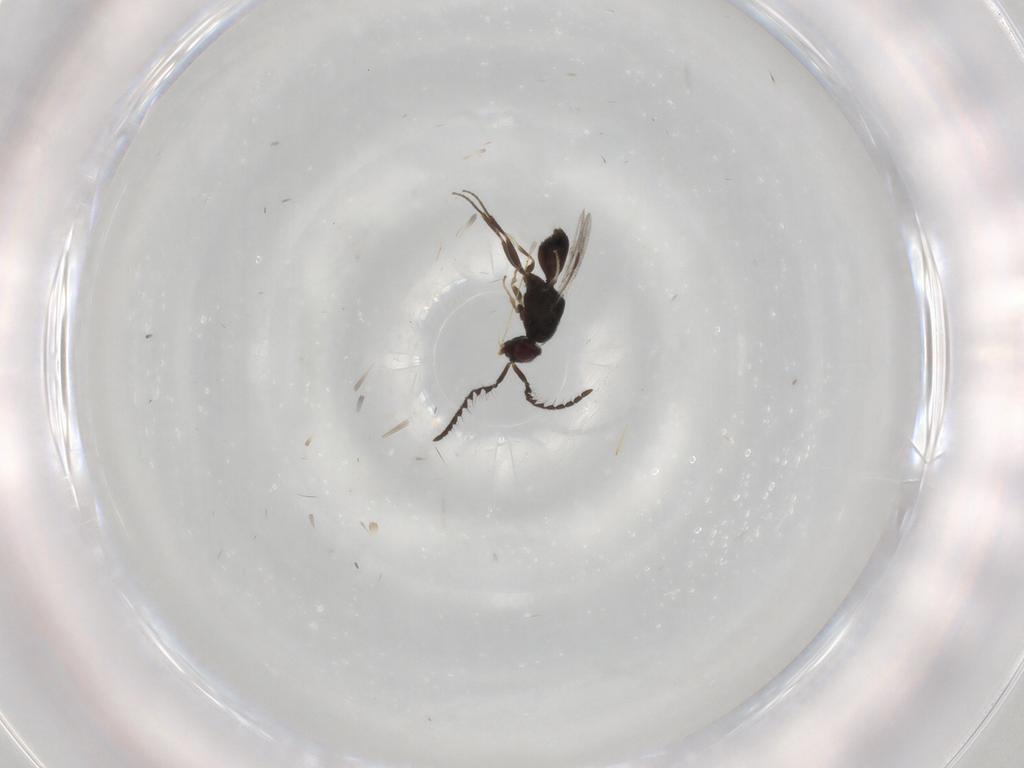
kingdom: Animalia
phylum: Arthropoda
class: Insecta
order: Hymenoptera
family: Megaspilidae
